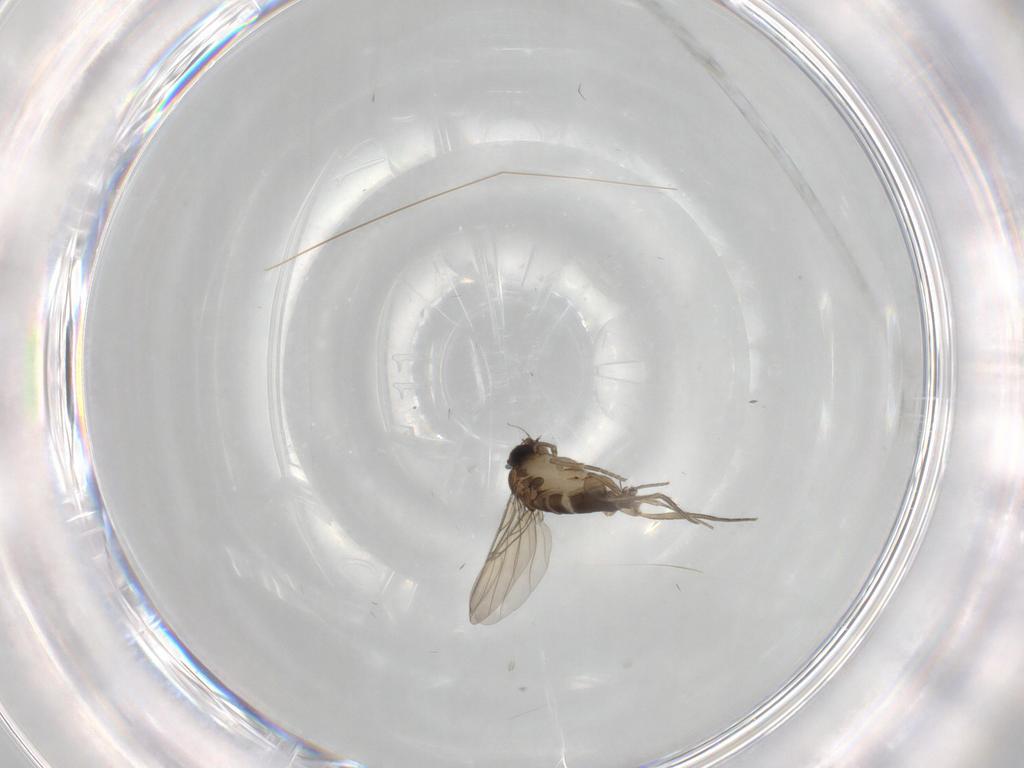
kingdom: Animalia
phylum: Arthropoda
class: Insecta
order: Diptera
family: Phoridae
